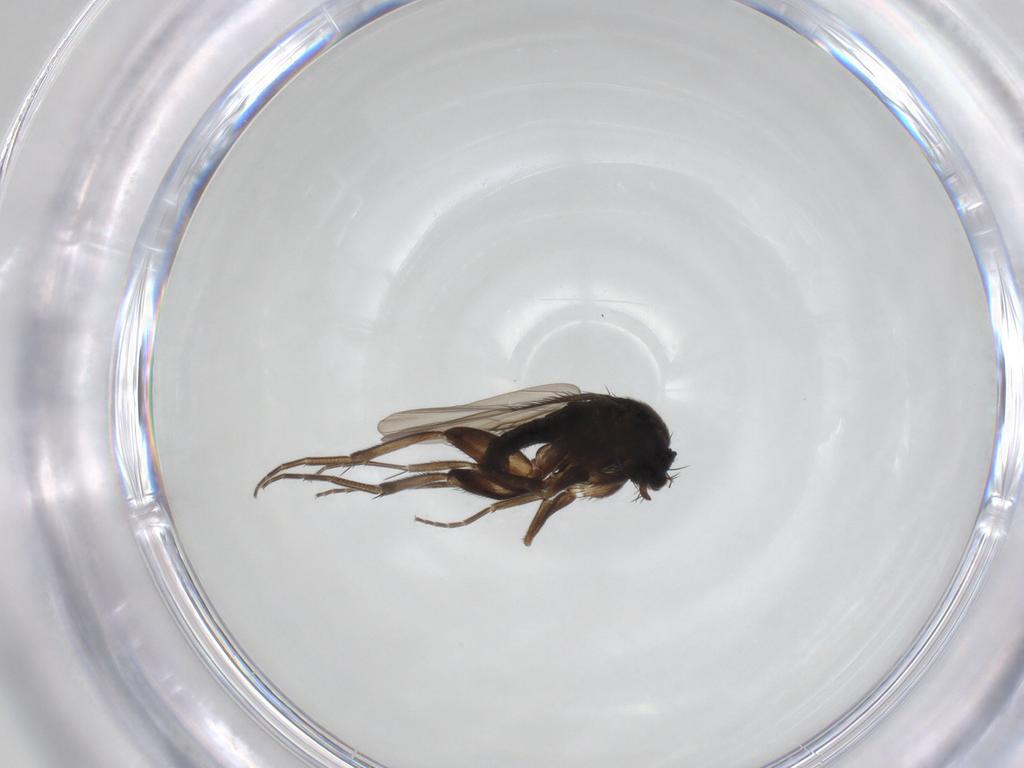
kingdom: Animalia
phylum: Arthropoda
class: Insecta
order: Diptera
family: Phoridae
